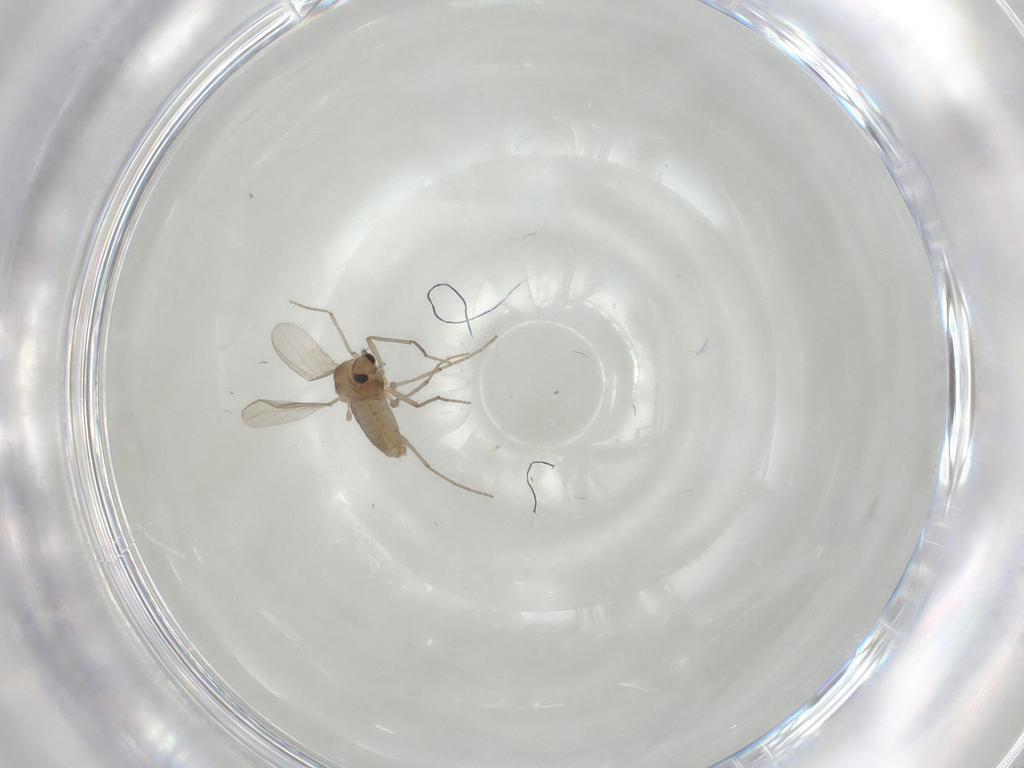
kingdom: Animalia
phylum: Arthropoda
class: Insecta
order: Diptera
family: Chironomidae
